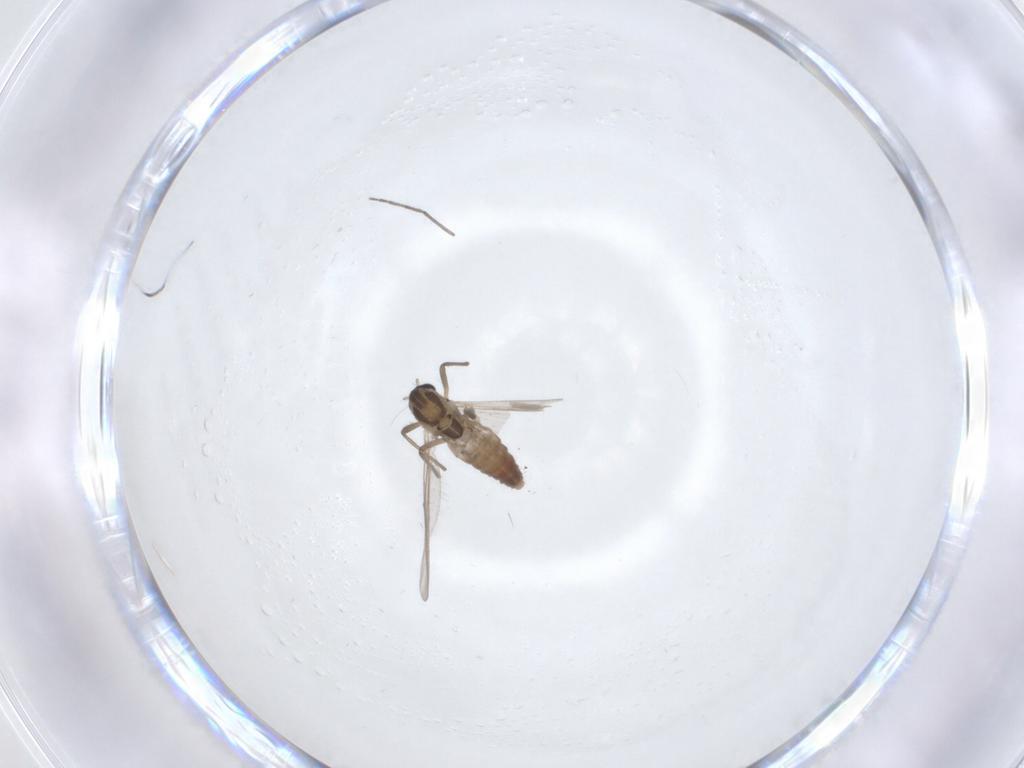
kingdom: Animalia
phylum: Arthropoda
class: Insecta
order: Diptera
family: Chironomidae
